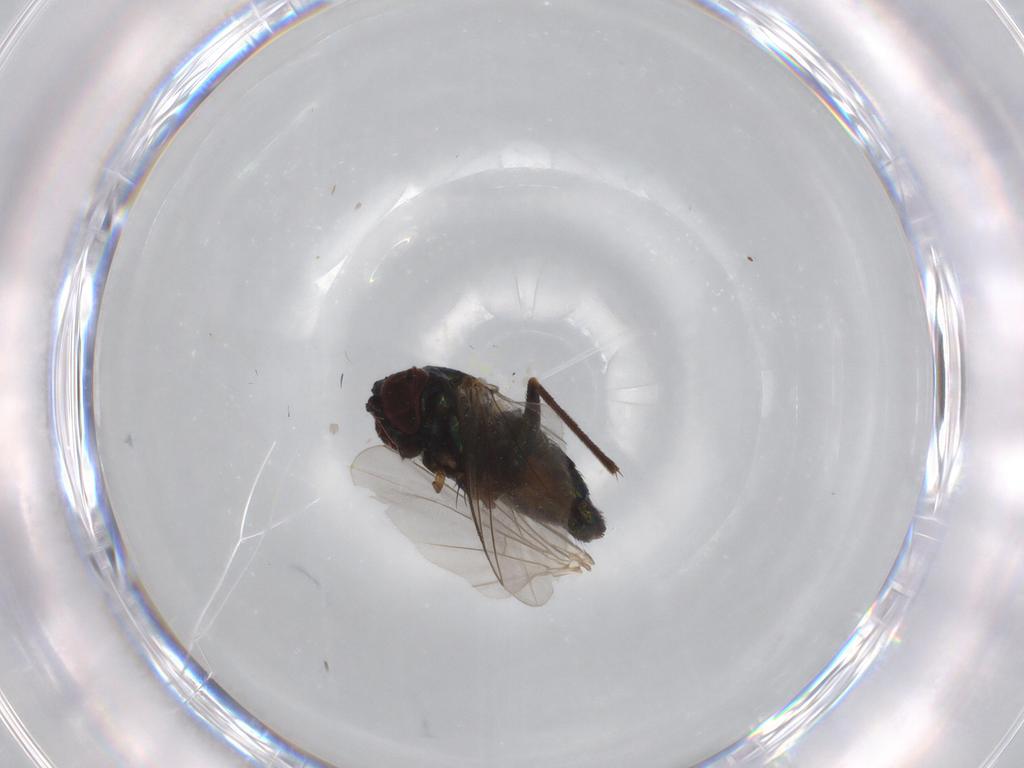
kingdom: Animalia
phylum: Arthropoda
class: Insecta
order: Diptera
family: Dolichopodidae
